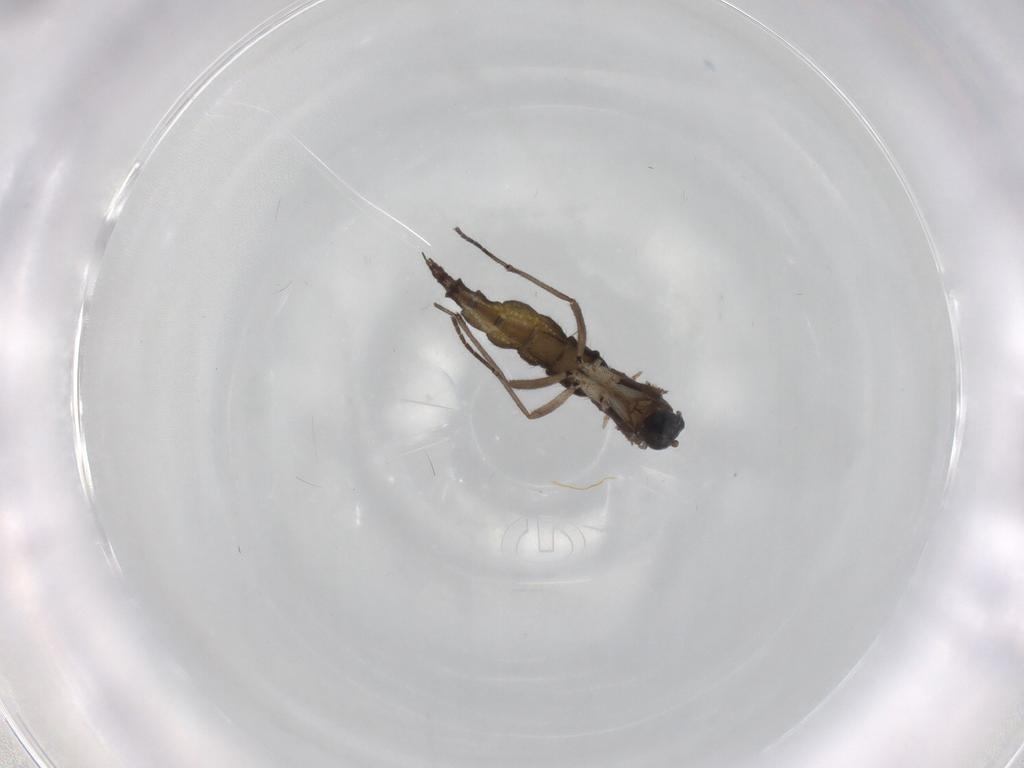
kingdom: Animalia
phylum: Arthropoda
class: Insecta
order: Diptera
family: Sciaridae
